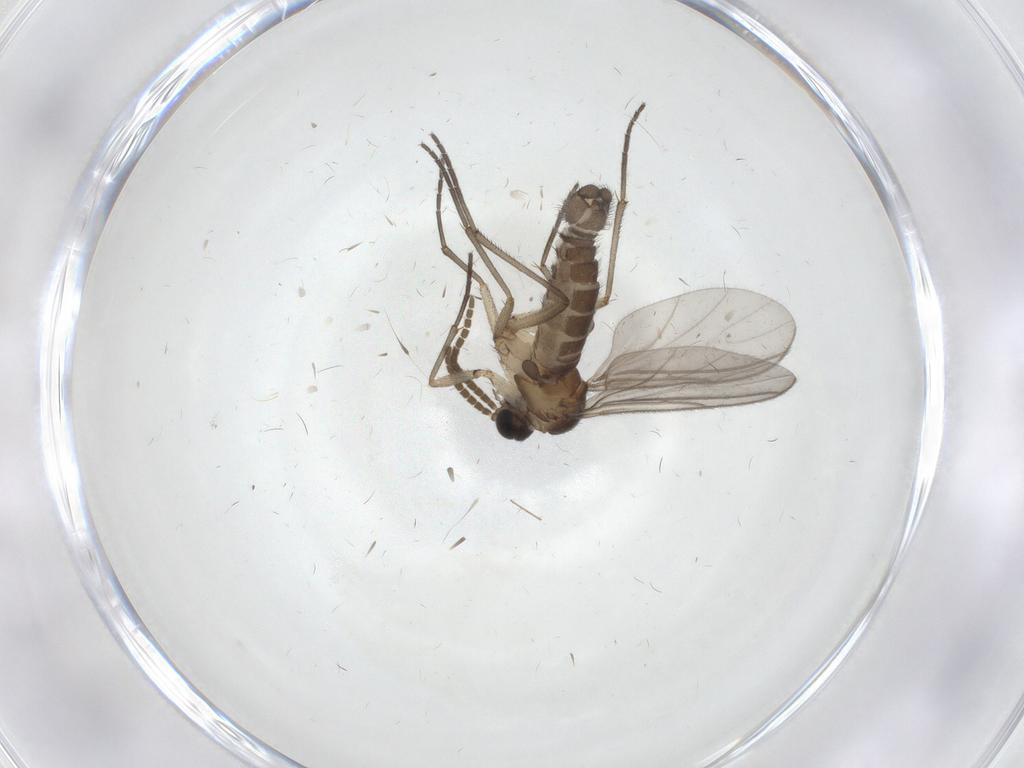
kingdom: Animalia
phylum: Arthropoda
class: Insecta
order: Diptera
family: Sciaridae
